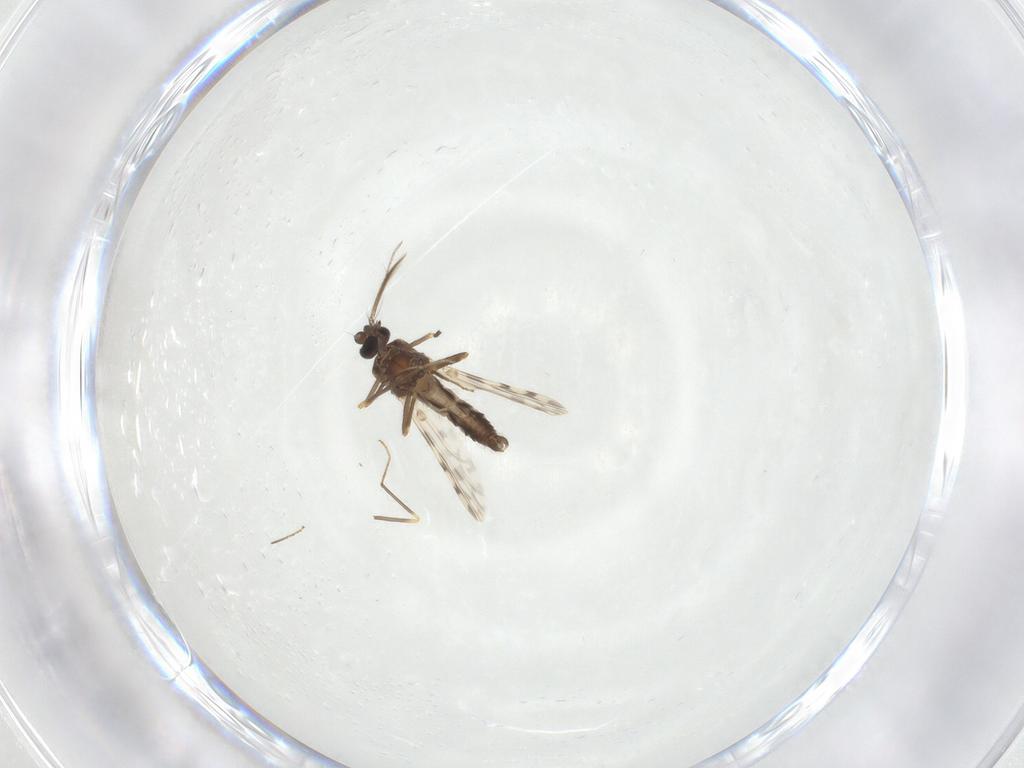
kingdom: Animalia
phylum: Arthropoda
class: Insecta
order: Diptera
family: Ceratopogonidae
